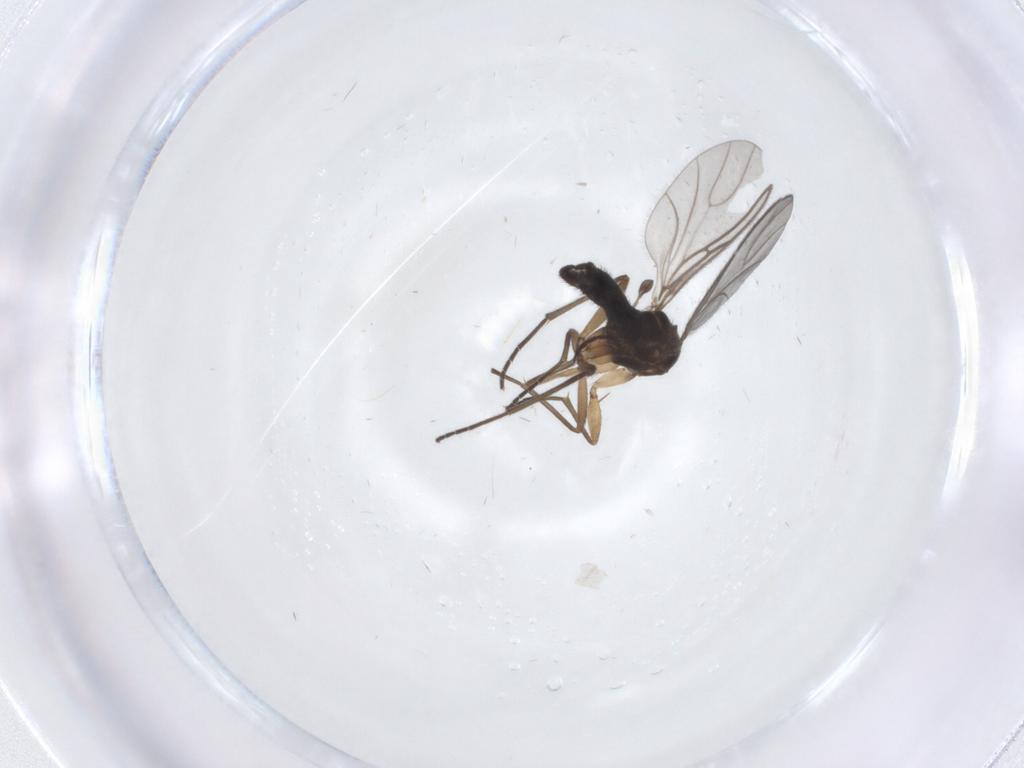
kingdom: Animalia
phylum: Arthropoda
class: Insecta
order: Diptera
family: Sciaridae
